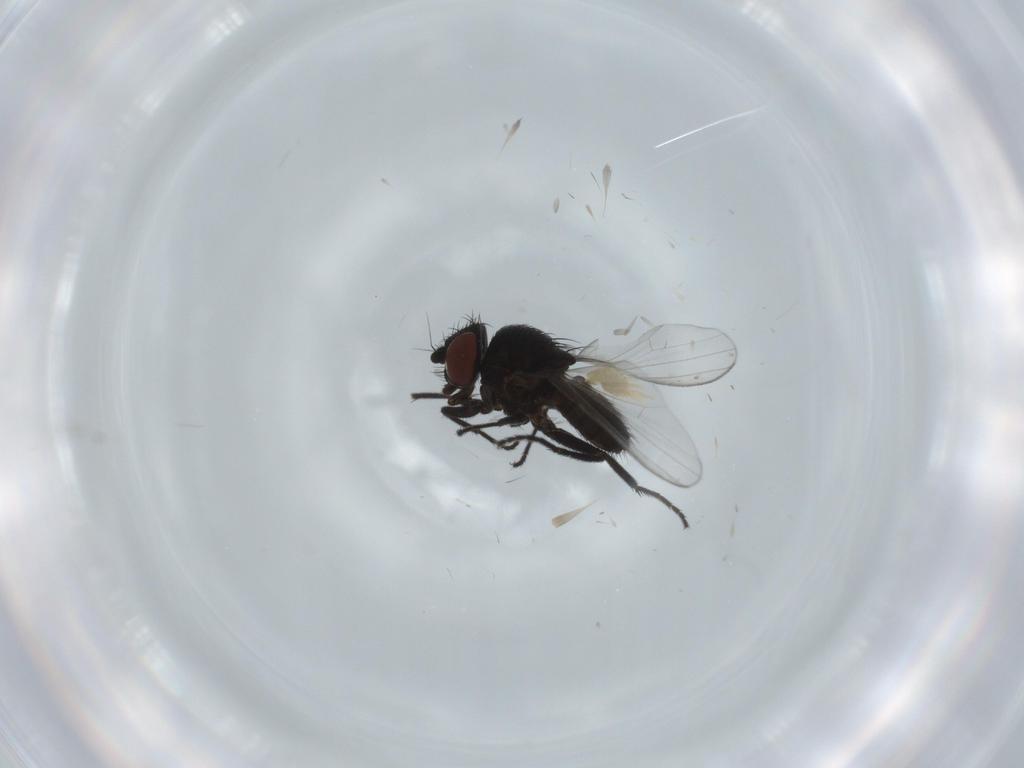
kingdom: Animalia
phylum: Arthropoda
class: Insecta
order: Diptera
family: Milichiidae
